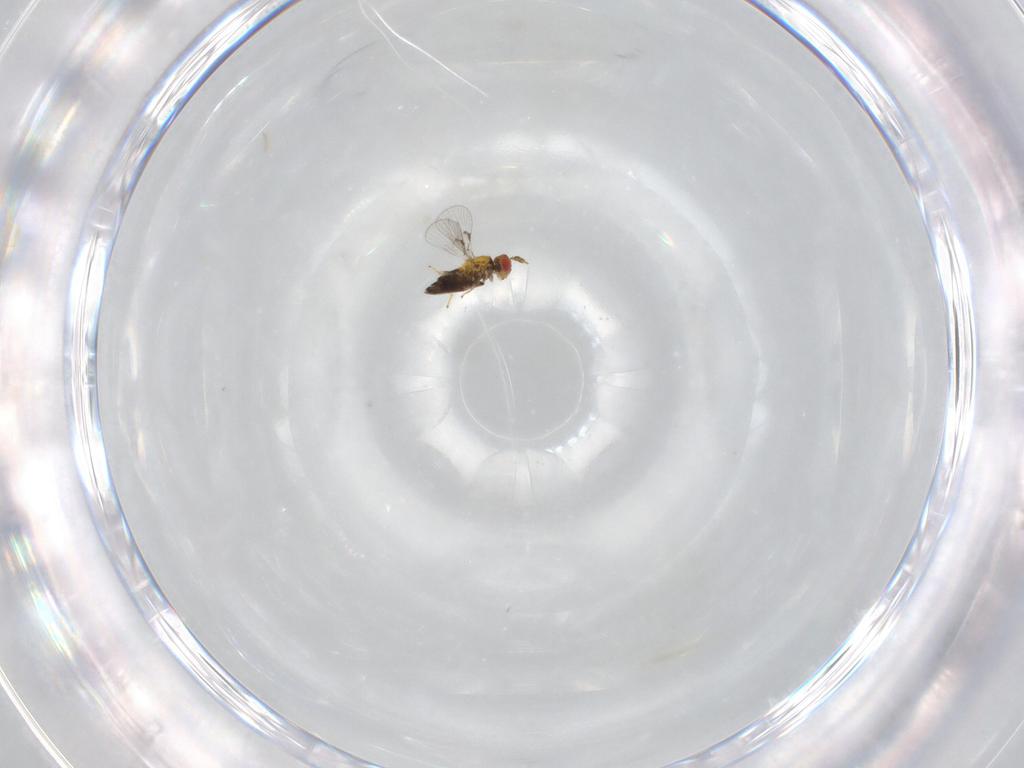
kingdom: Animalia
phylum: Arthropoda
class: Insecta
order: Hymenoptera
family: Trichogrammatidae
